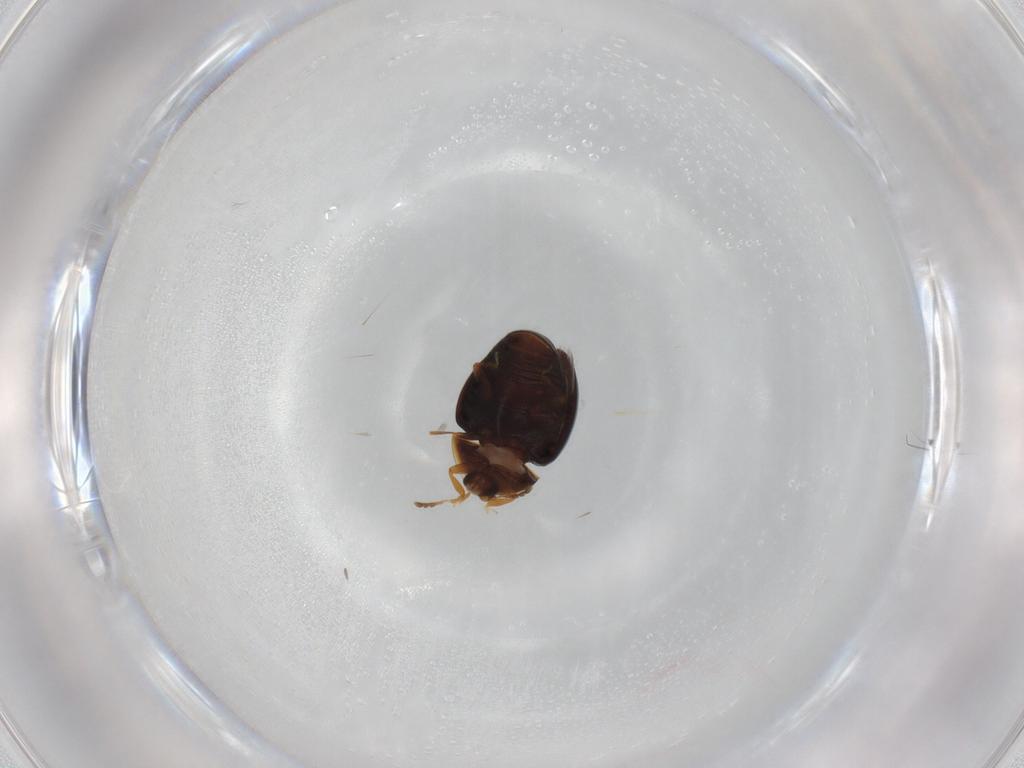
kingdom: Animalia
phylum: Arthropoda
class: Insecta
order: Coleoptera
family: Corylophidae
